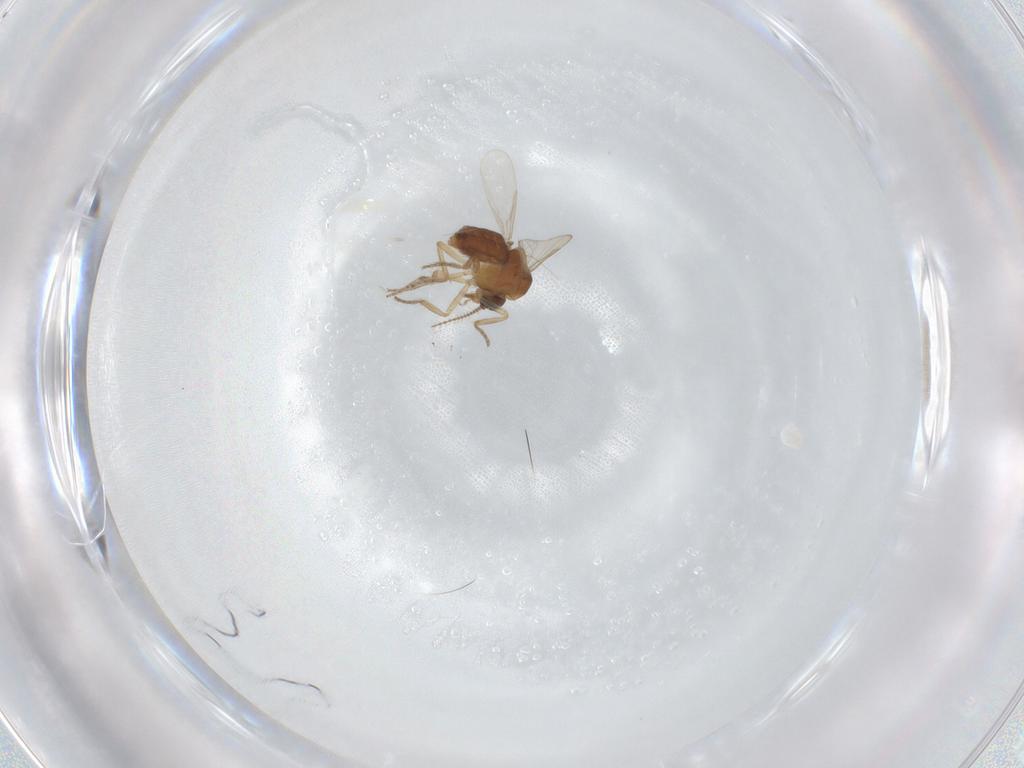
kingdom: Animalia
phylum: Arthropoda
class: Insecta
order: Diptera
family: Ceratopogonidae
